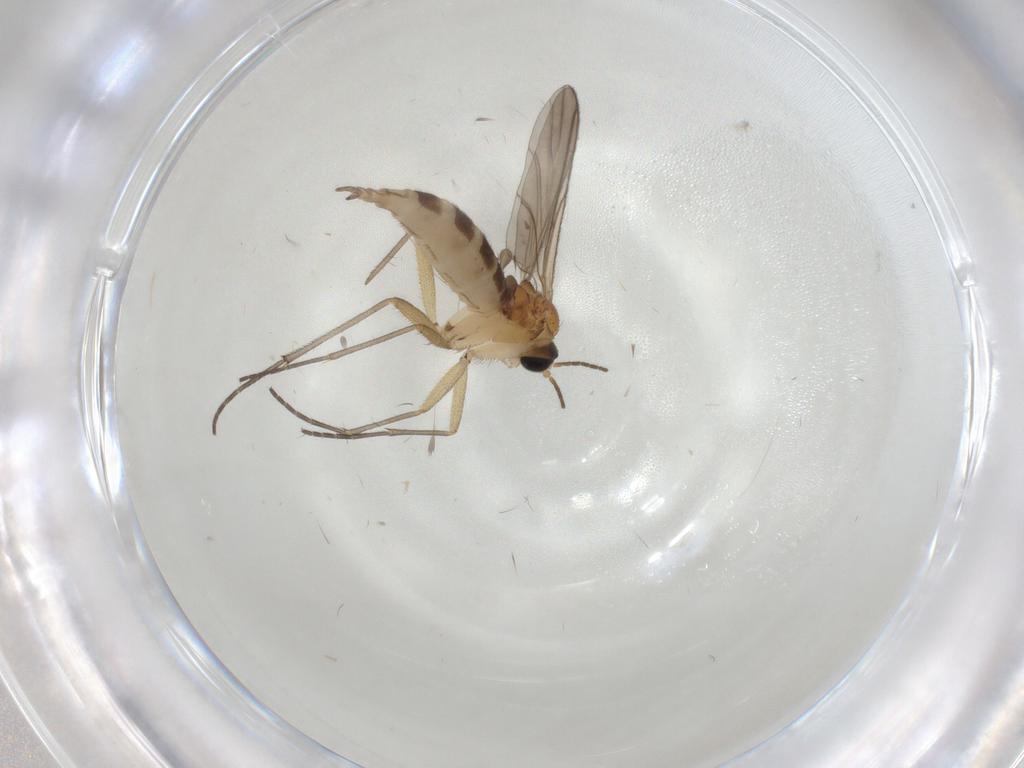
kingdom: Animalia
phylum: Arthropoda
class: Insecta
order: Diptera
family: Sciaridae
